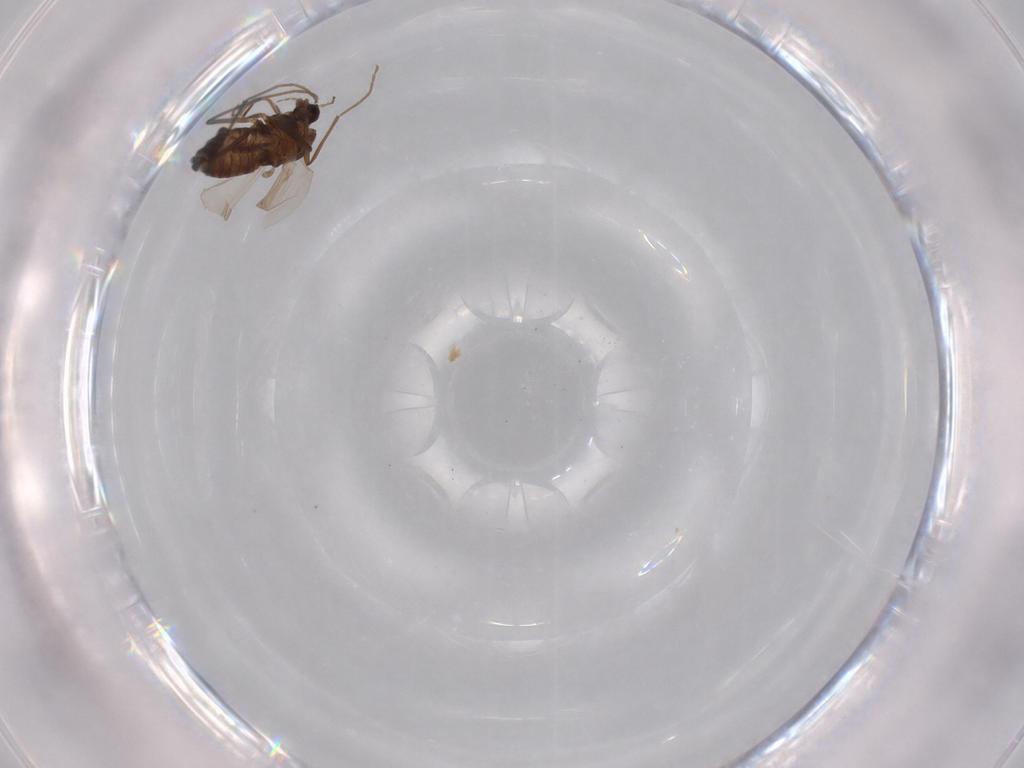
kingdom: Animalia
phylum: Arthropoda
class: Insecta
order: Diptera
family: Chironomidae
